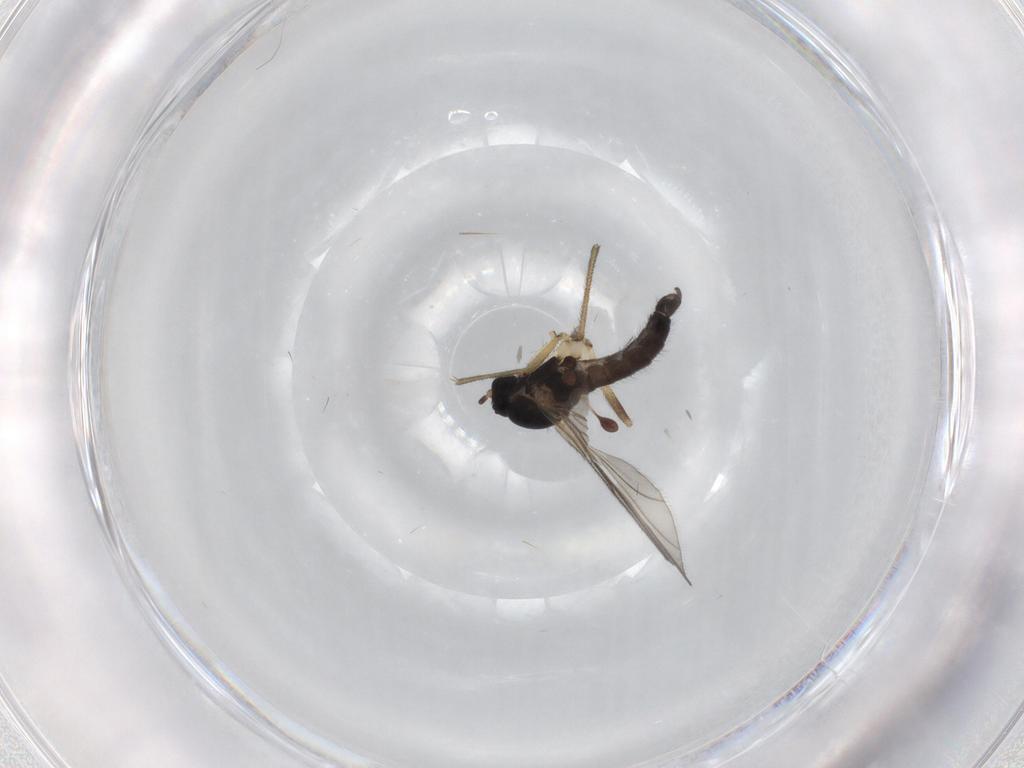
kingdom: Animalia
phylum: Arthropoda
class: Insecta
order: Diptera
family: Sciaridae
